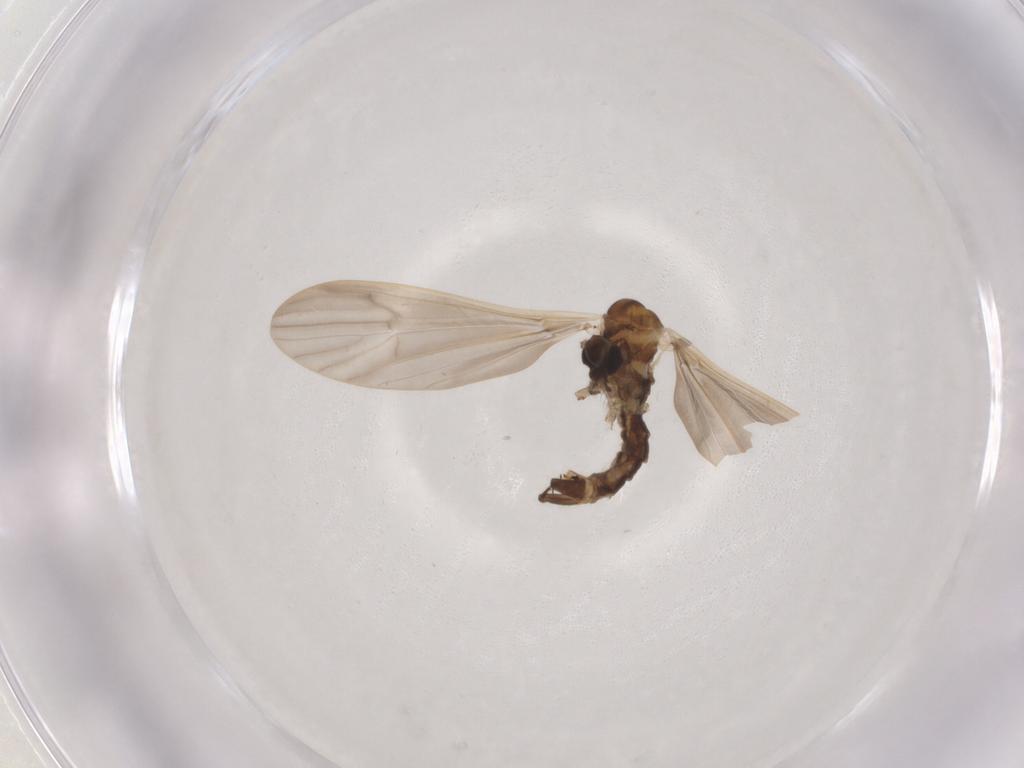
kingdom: Animalia
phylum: Arthropoda
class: Insecta
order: Diptera
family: Limoniidae
